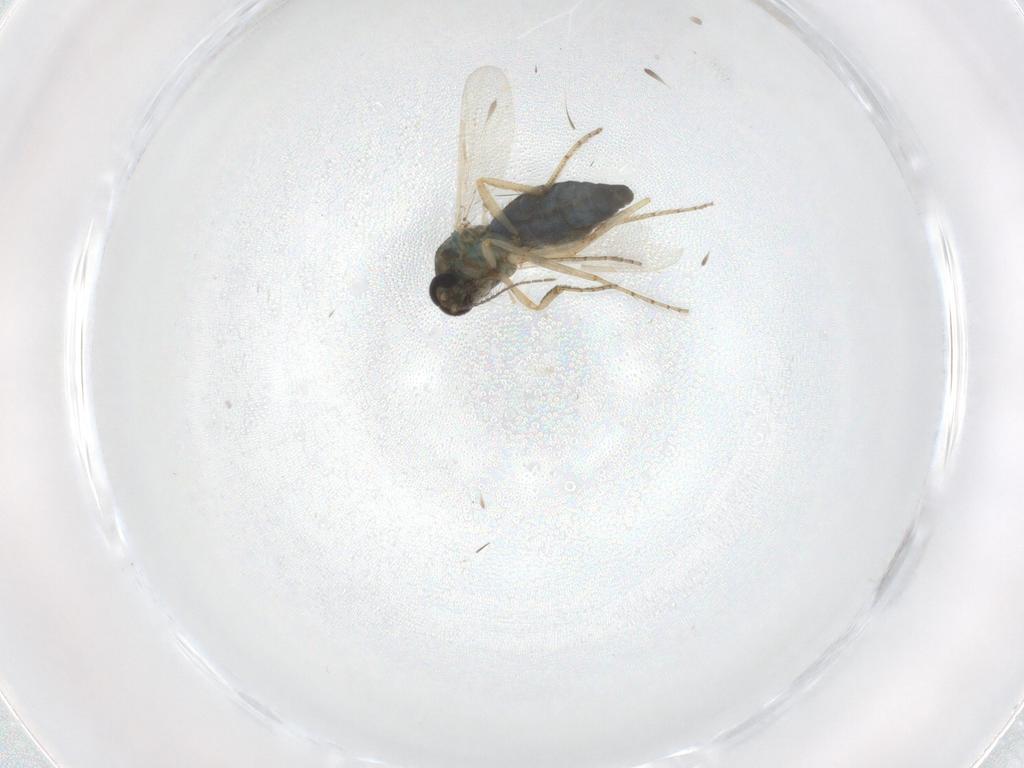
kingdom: Animalia
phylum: Arthropoda
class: Insecta
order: Diptera
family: Ceratopogonidae
